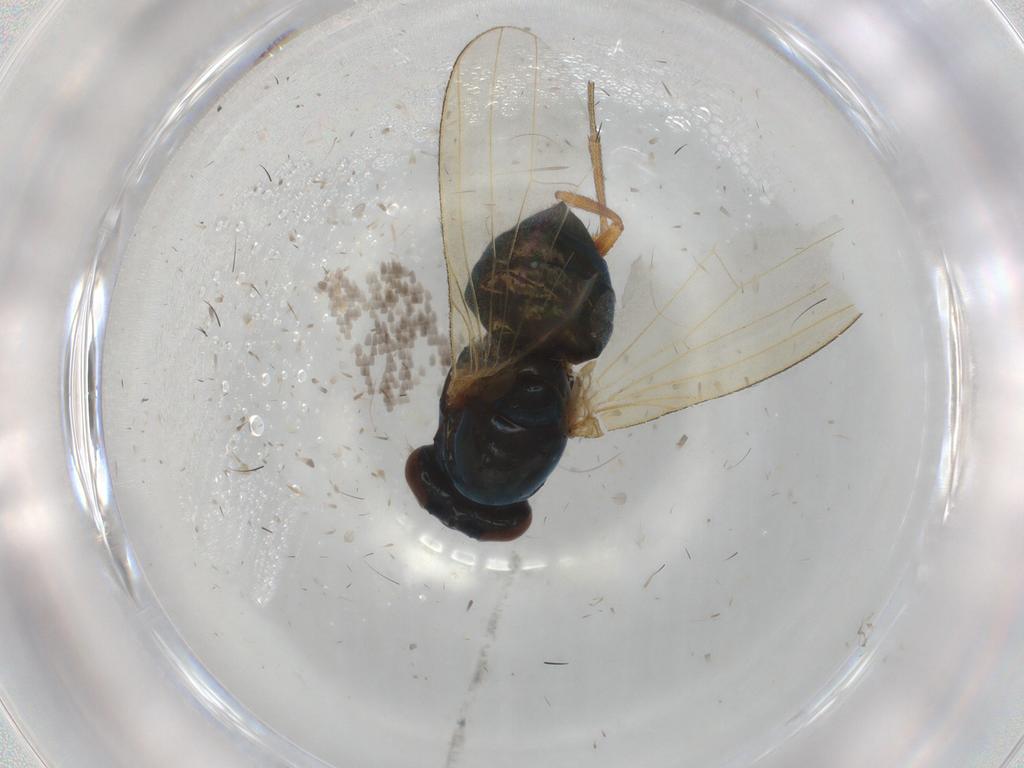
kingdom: Animalia
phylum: Arthropoda
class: Insecta
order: Diptera
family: Lauxaniidae
